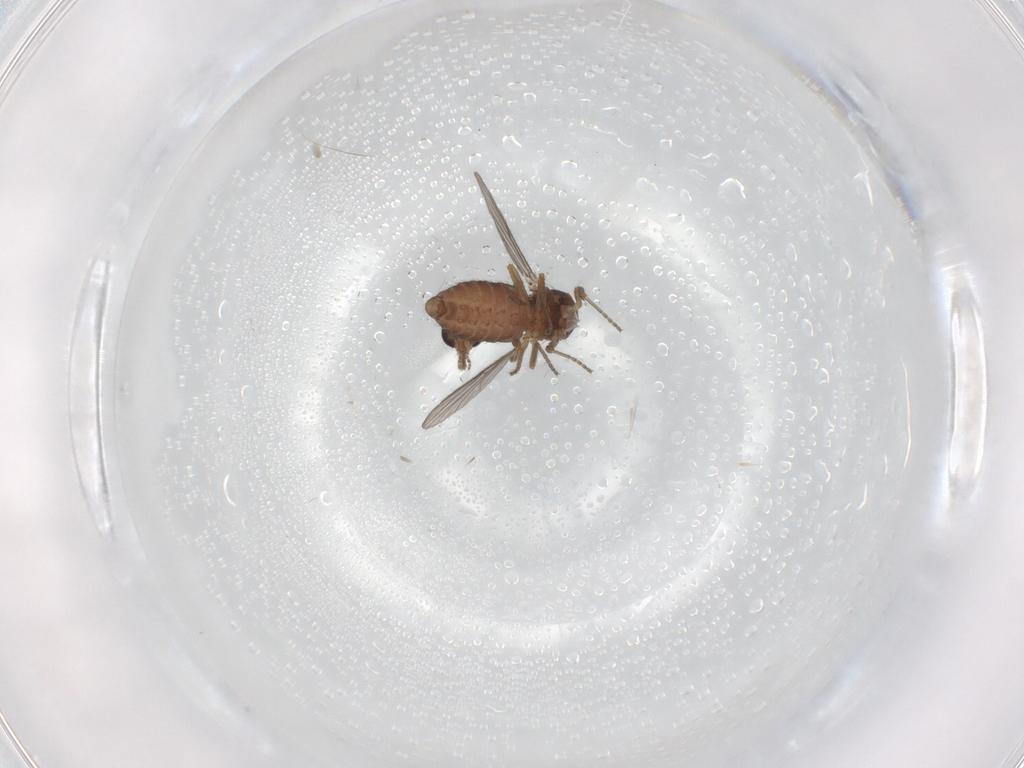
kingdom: Animalia
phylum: Arthropoda
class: Insecta
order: Diptera
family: Ceratopogonidae
